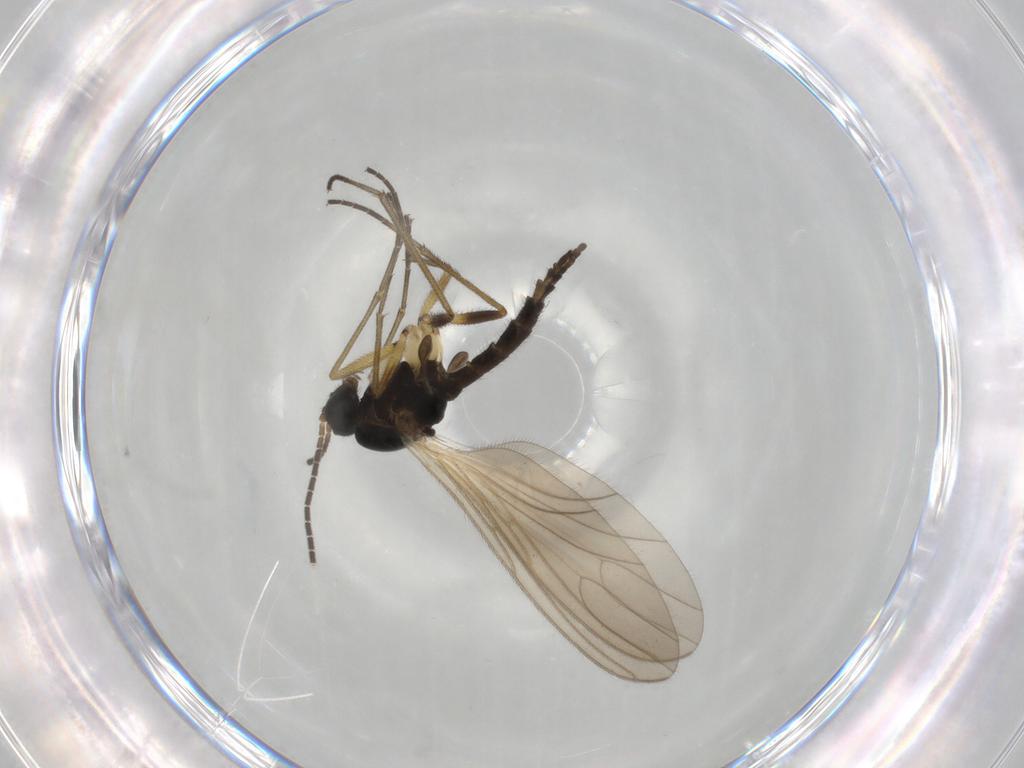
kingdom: Animalia
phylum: Arthropoda
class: Insecta
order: Diptera
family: Sciaridae
